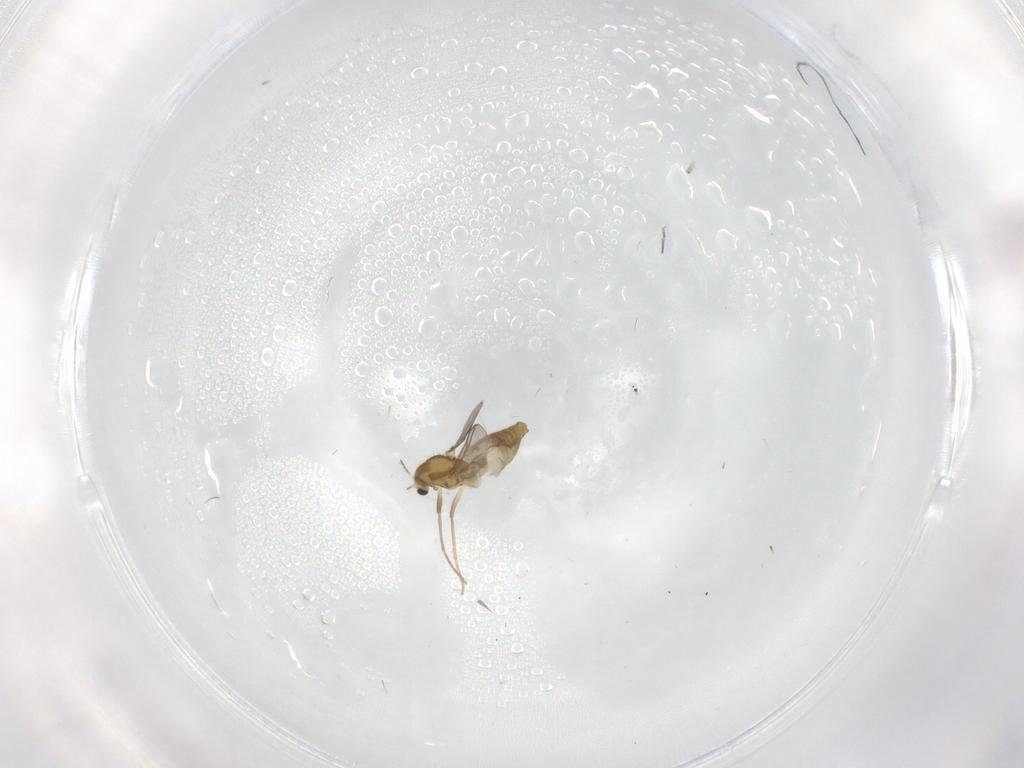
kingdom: Animalia
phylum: Arthropoda
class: Insecta
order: Diptera
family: Chironomidae
